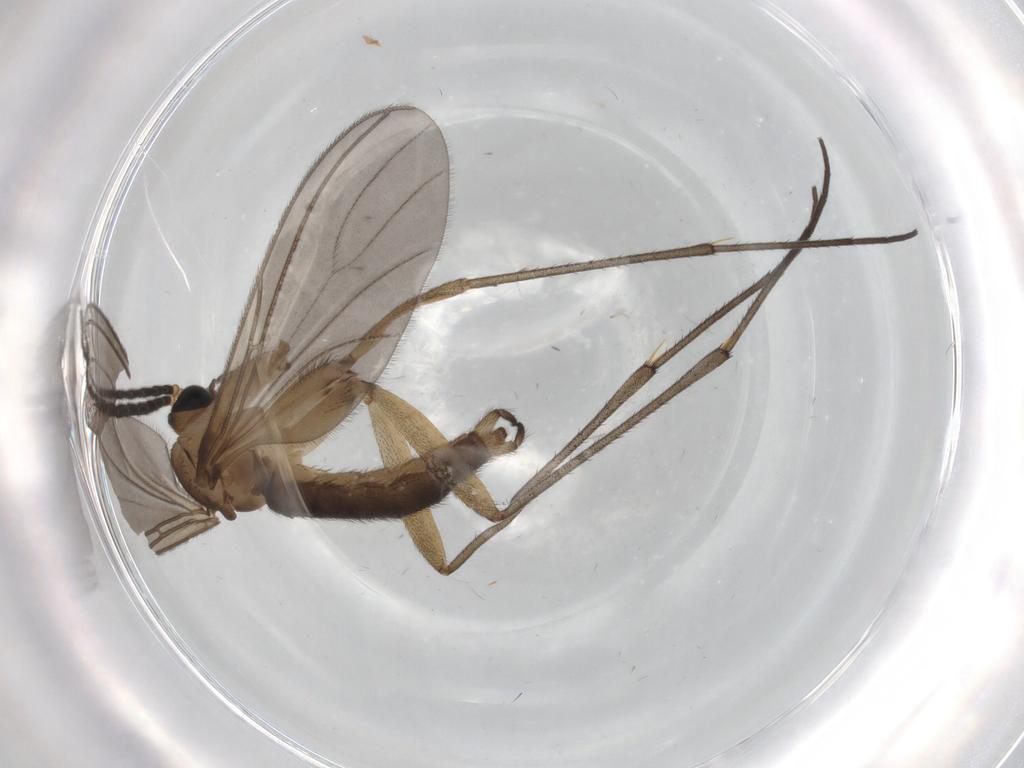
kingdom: Animalia
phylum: Arthropoda
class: Insecta
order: Diptera
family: Sciaridae
